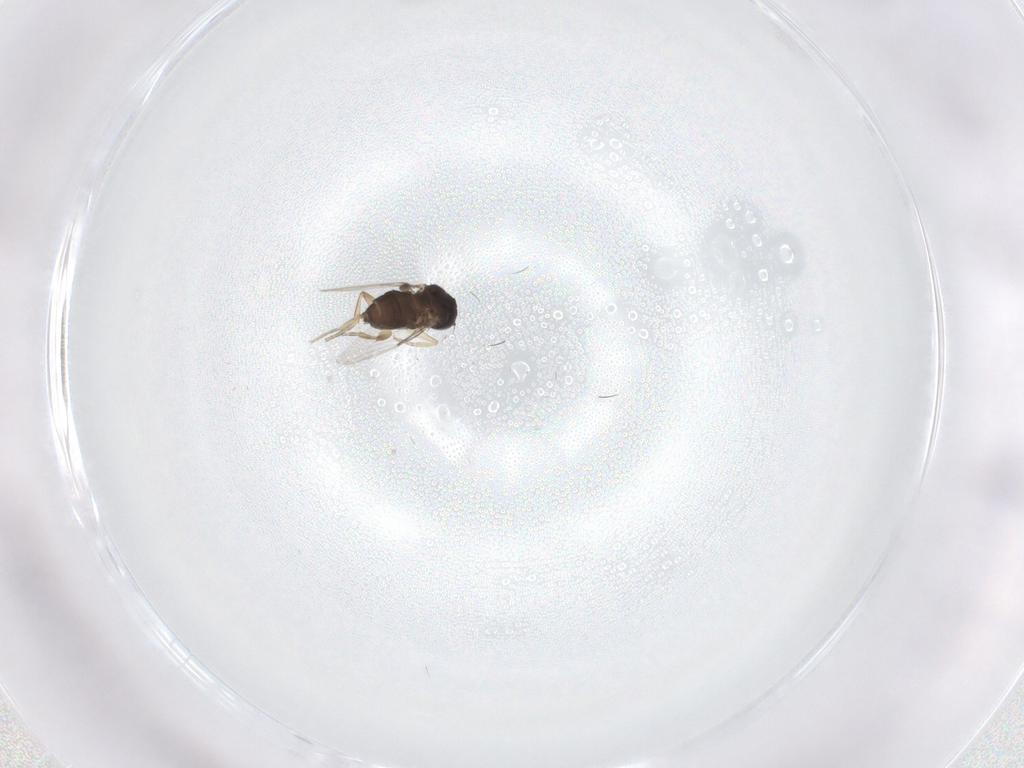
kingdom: Animalia
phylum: Arthropoda
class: Insecta
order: Diptera
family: Phoridae
